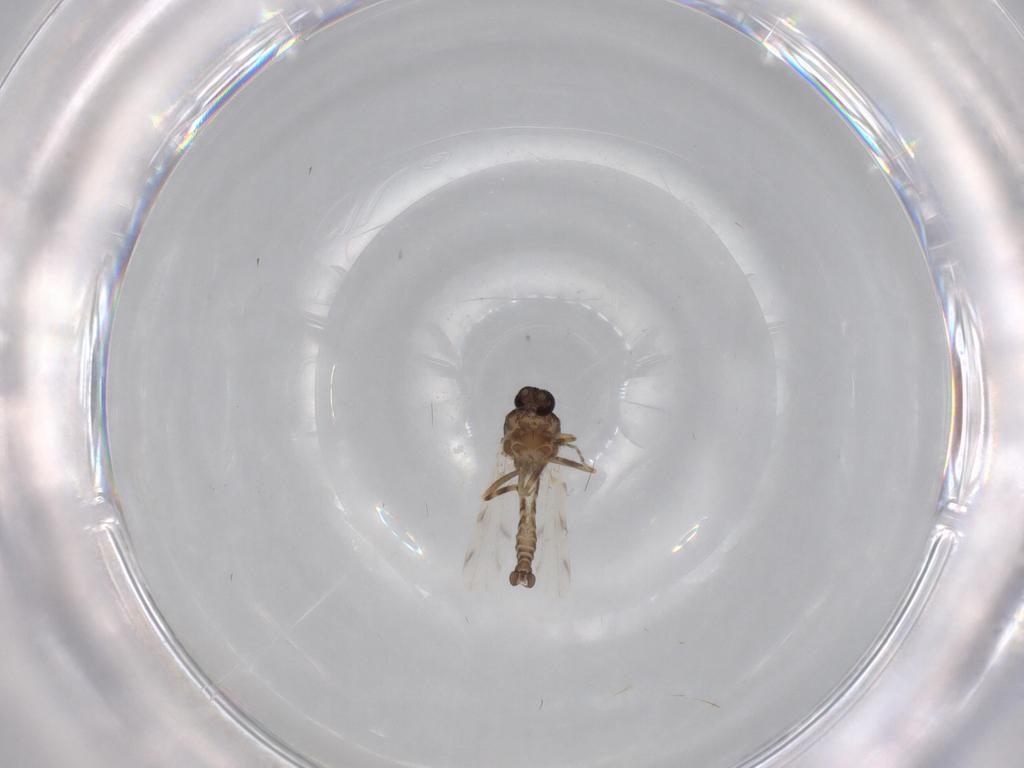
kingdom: Animalia
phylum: Arthropoda
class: Insecta
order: Diptera
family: Ceratopogonidae
